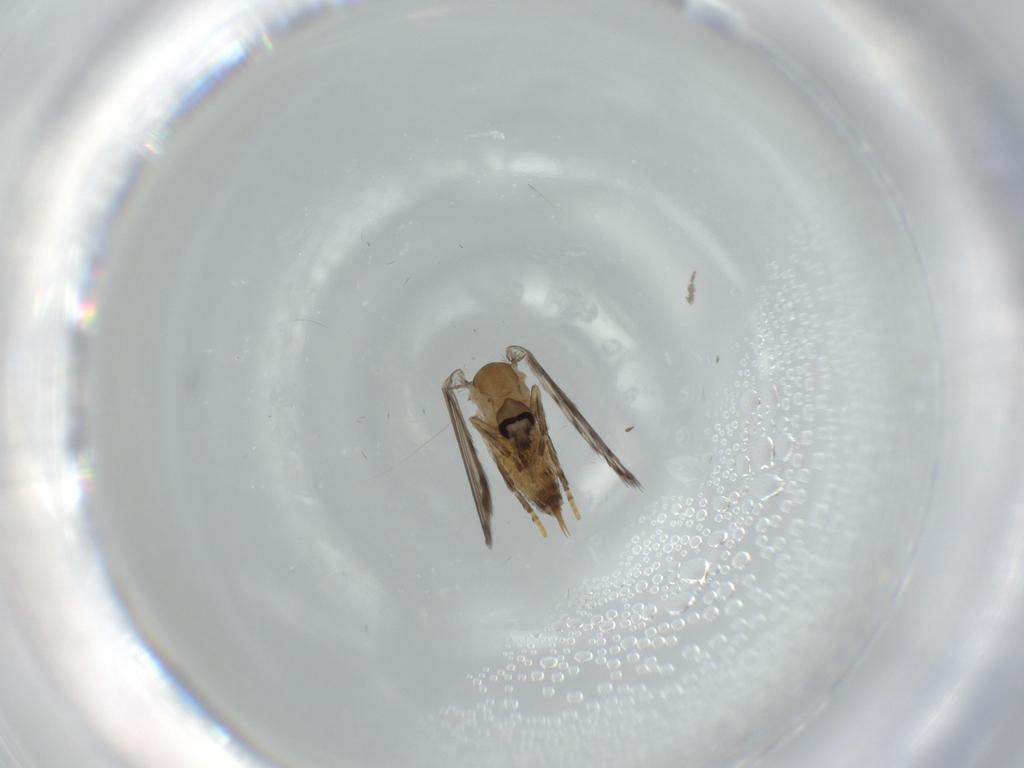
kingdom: Animalia
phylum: Arthropoda
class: Insecta
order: Diptera
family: Psychodidae
